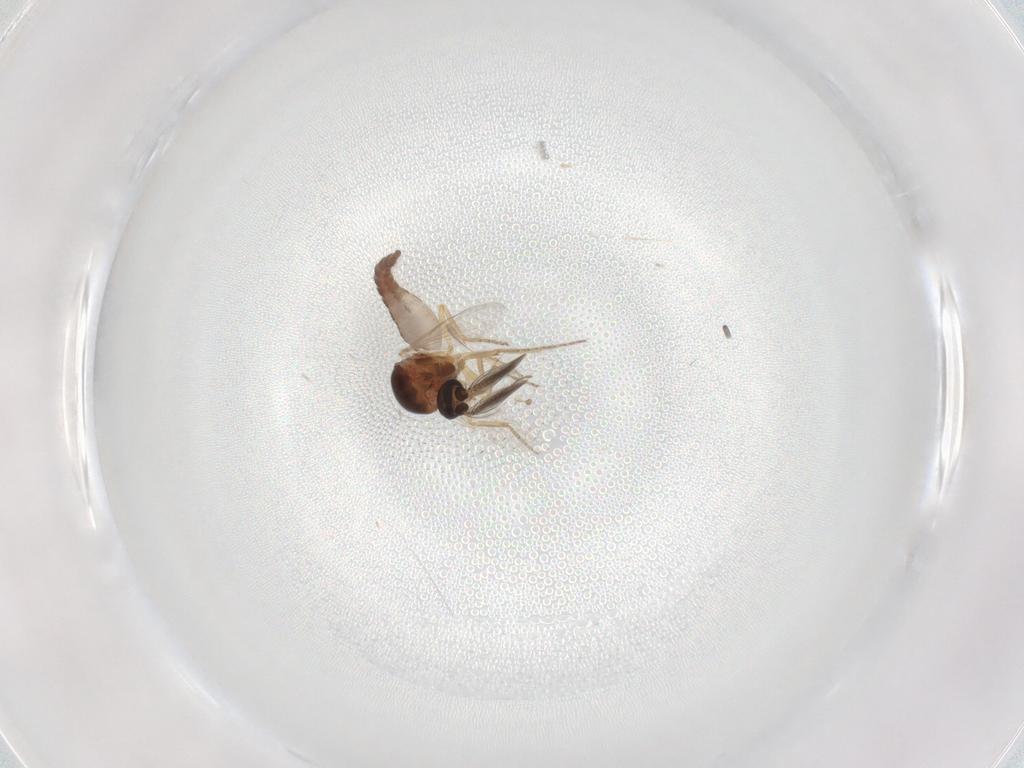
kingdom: Animalia
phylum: Arthropoda
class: Insecta
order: Diptera
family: Ceratopogonidae
